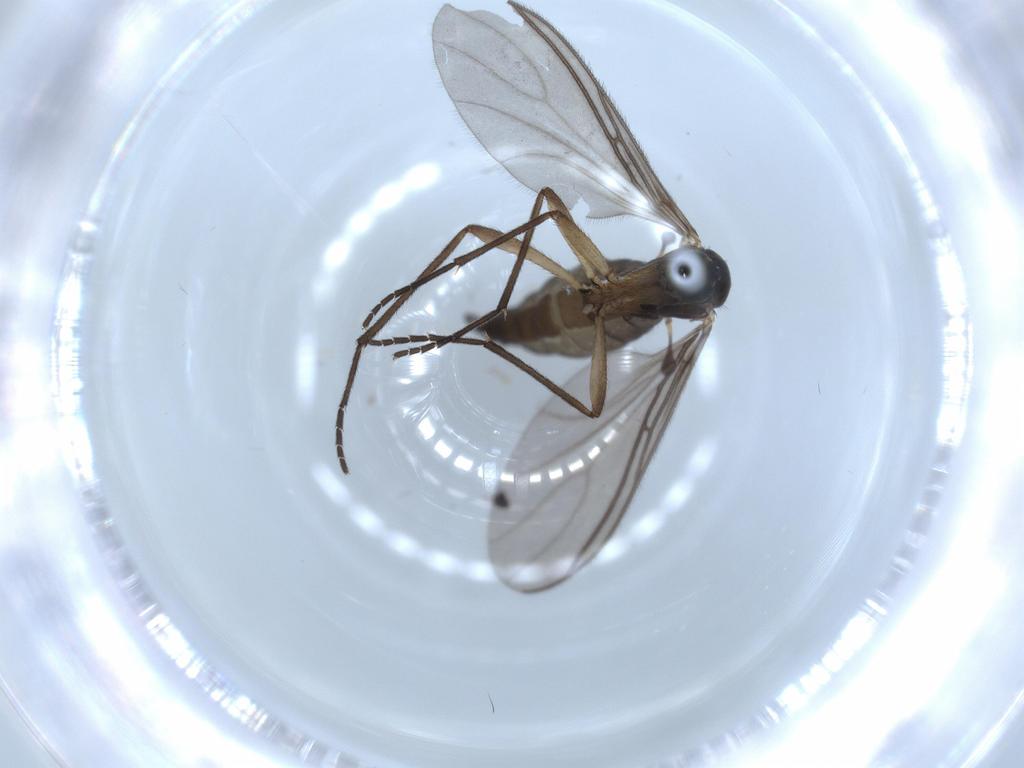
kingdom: Animalia
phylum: Arthropoda
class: Insecta
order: Diptera
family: Sciaridae
